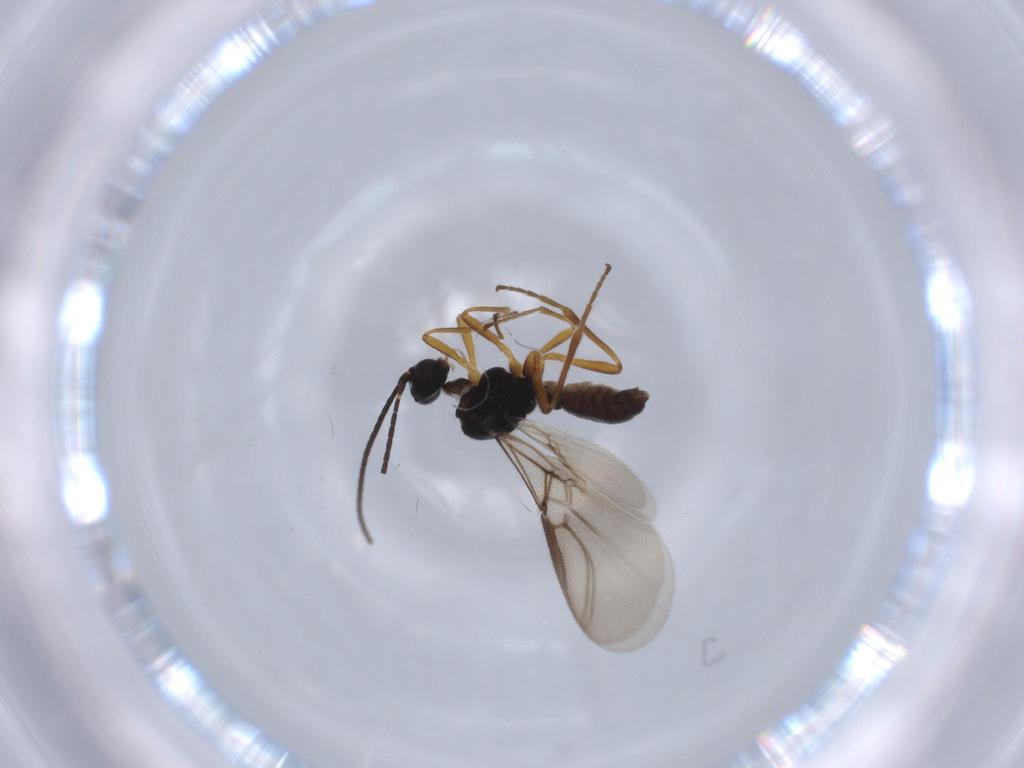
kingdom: Animalia
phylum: Arthropoda
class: Insecta
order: Hymenoptera
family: Braconidae
